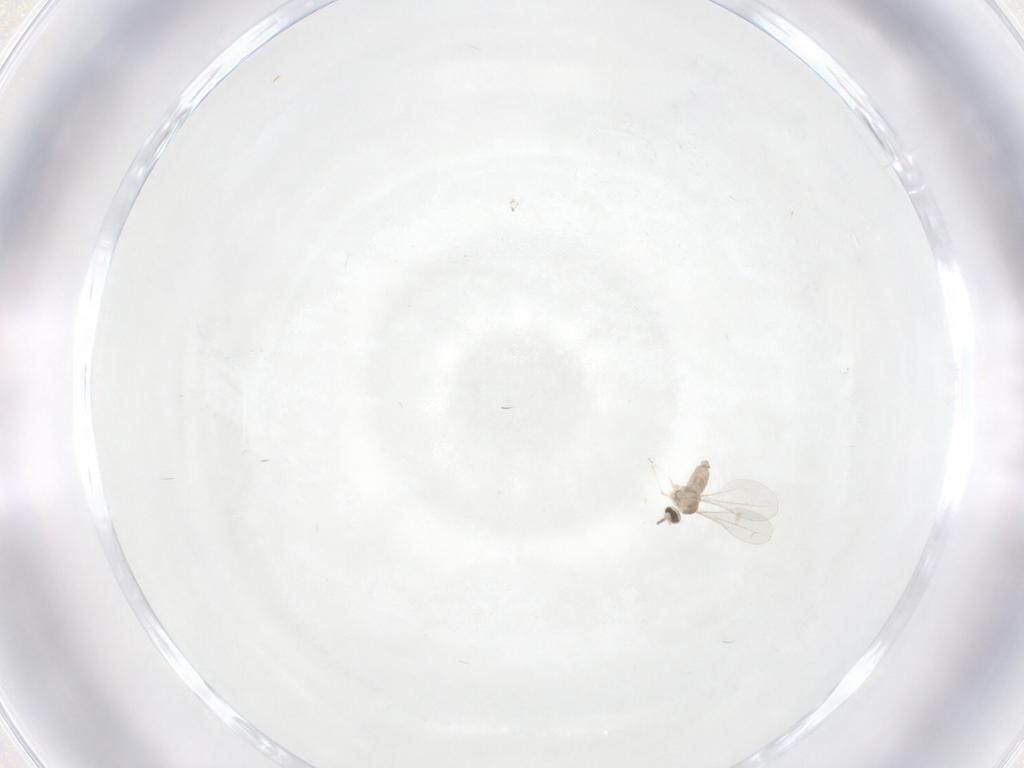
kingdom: Animalia
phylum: Arthropoda
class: Insecta
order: Diptera
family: Cecidomyiidae
